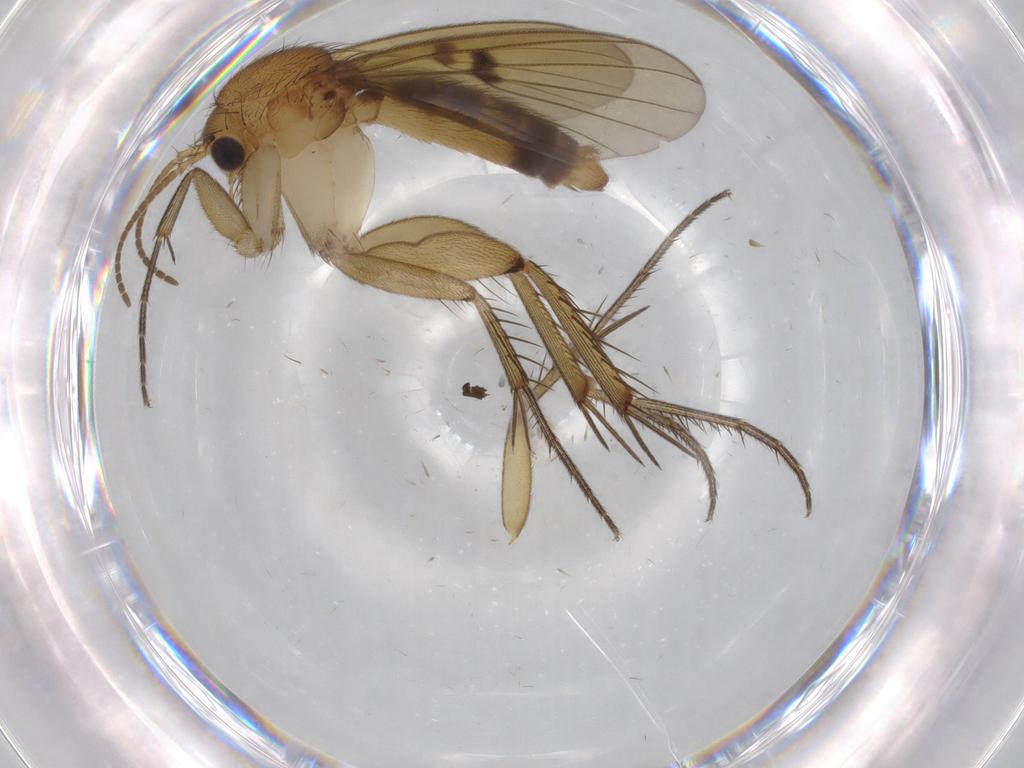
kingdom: Animalia
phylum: Arthropoda
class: Insecta
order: Diptera
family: Mycetophilidae
